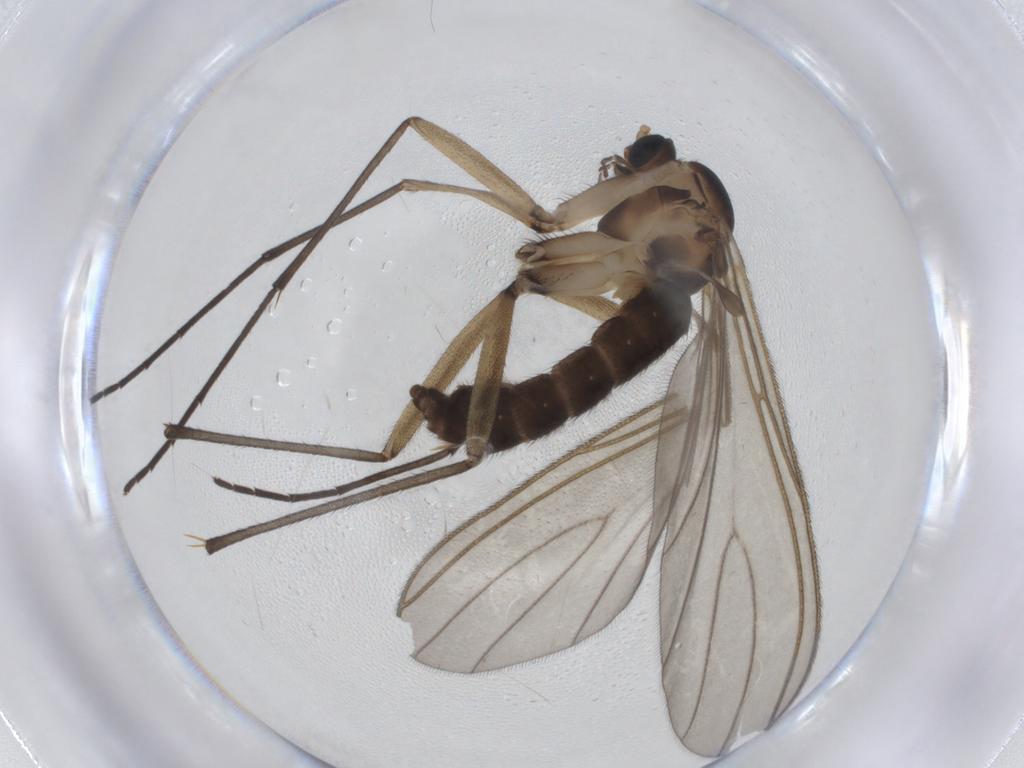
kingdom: Animalia
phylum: Arthropoda
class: Insecta
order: Diptera
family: Sciaridae
